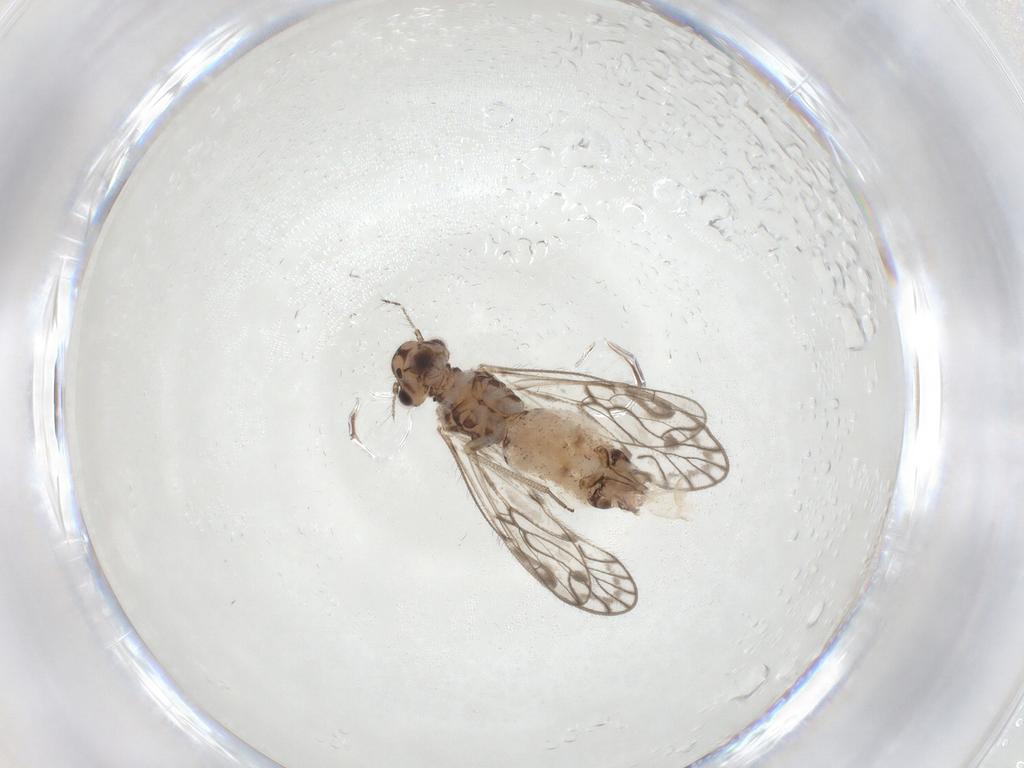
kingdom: Animalia
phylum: Arthropoda
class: Insecta
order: Psocodea
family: Psocidae
